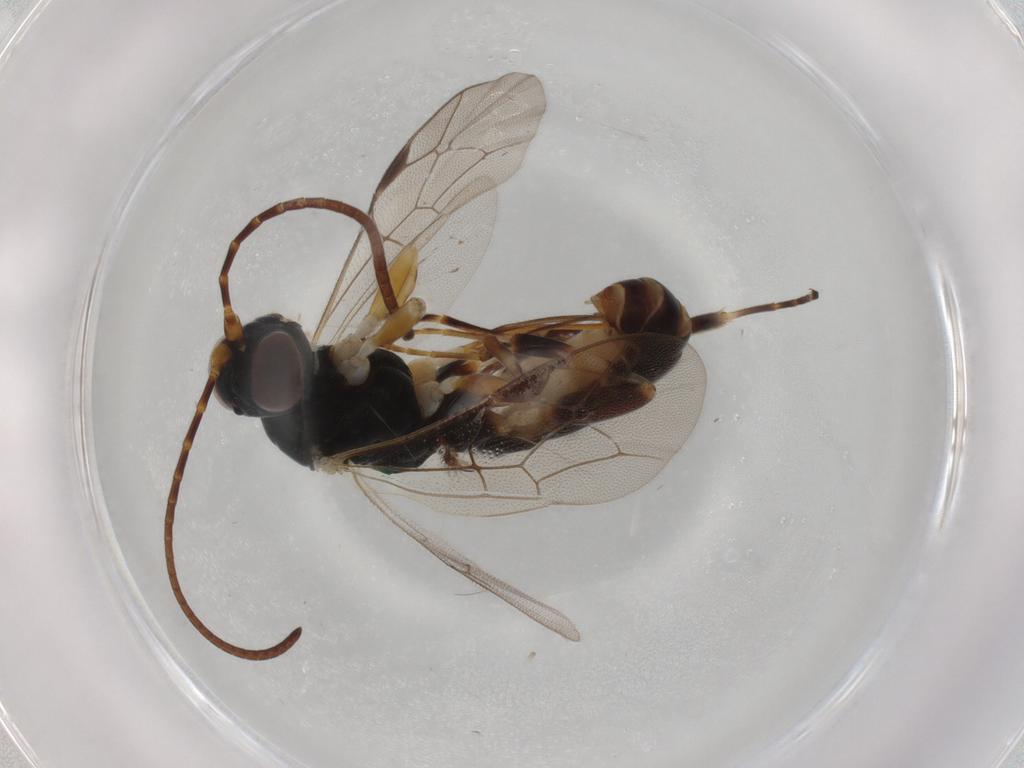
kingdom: Animalia
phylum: Arthropoda
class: Insecta
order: Hymenoptera
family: Ichneumonidae
